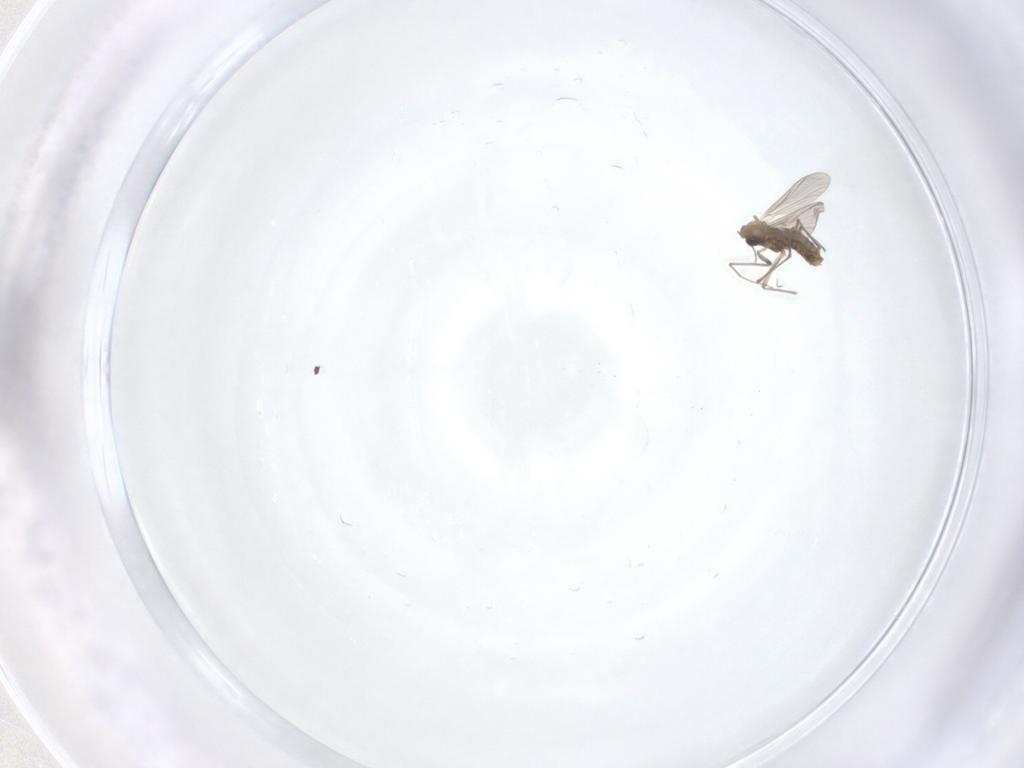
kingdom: Animalia
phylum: Arthropoda
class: Insecta
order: Diptera
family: Chironomidae
